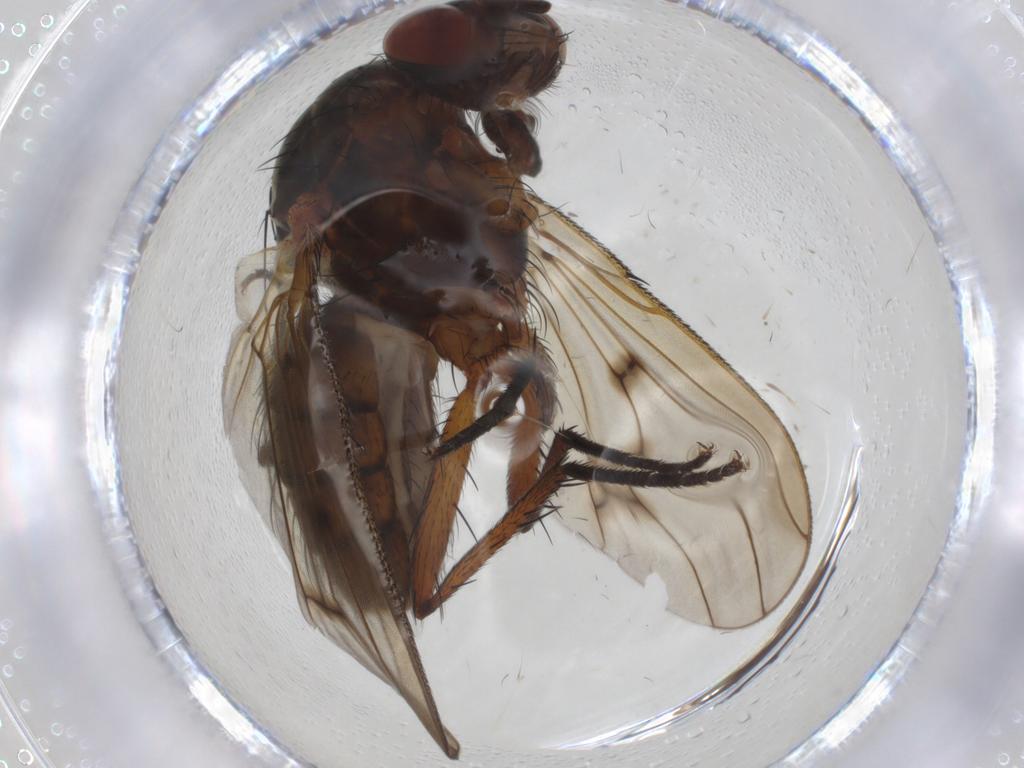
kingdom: Animalia
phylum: Arthropoda
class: Insecta
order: Diptera
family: Anthomyiidae
